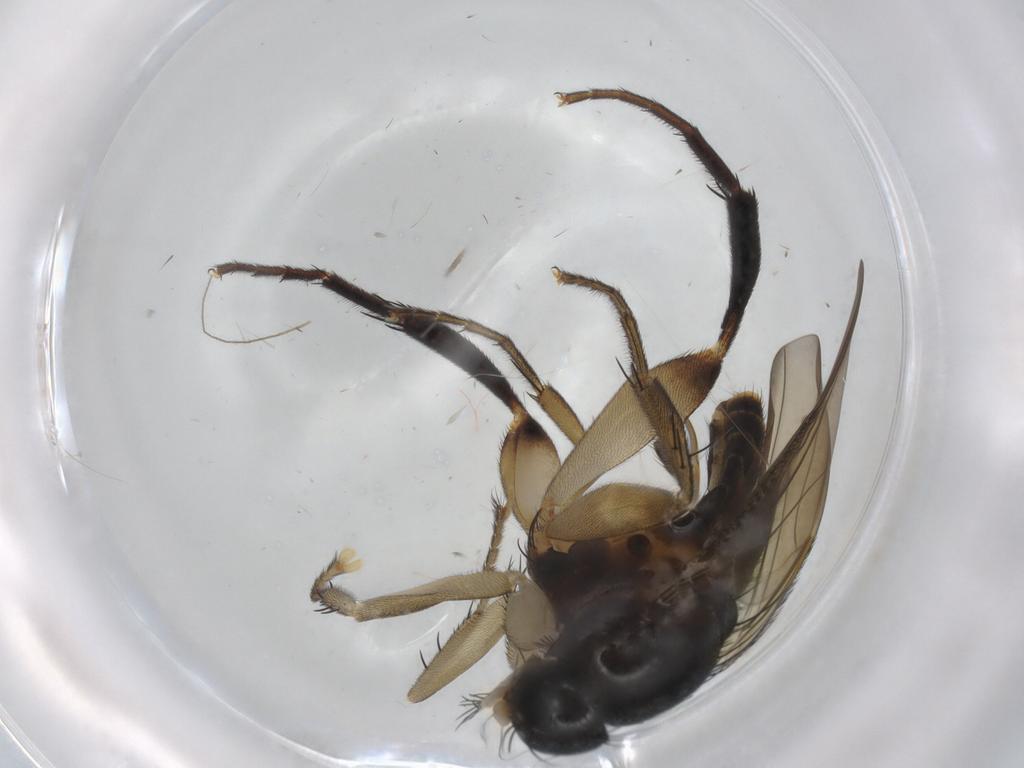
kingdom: Animalia
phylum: Arthropoda
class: Insecta
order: Diptera
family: Phoridae
